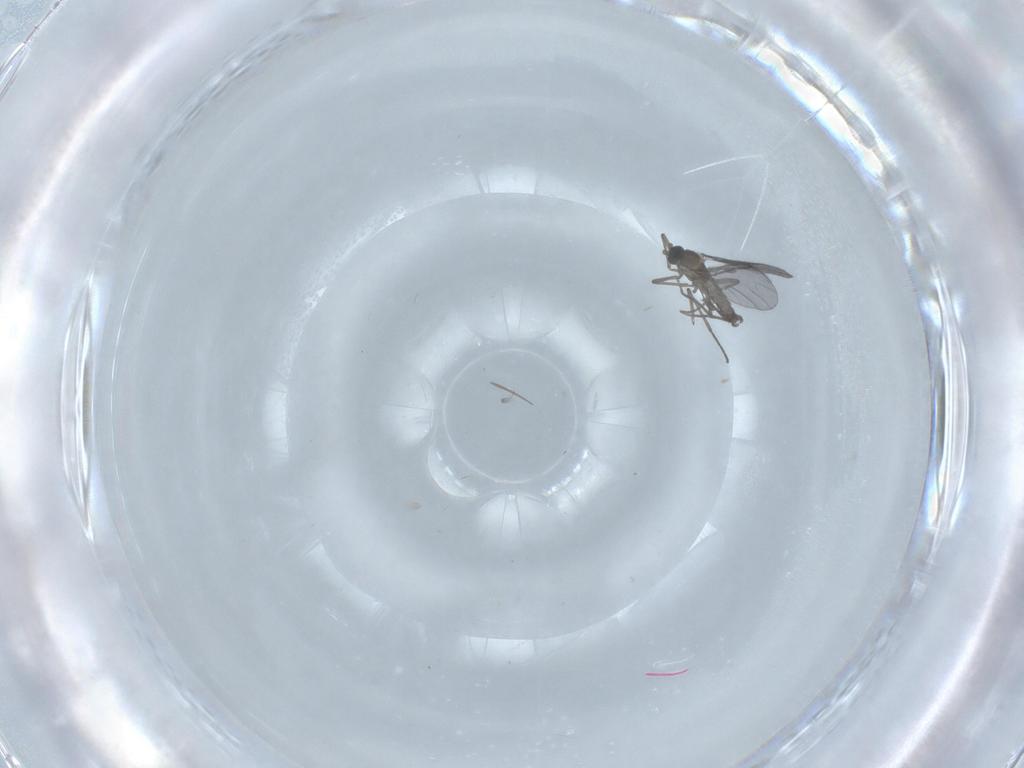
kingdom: Animalia
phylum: Arthropoda
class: Insecta
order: Diptera
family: Sciaridae
